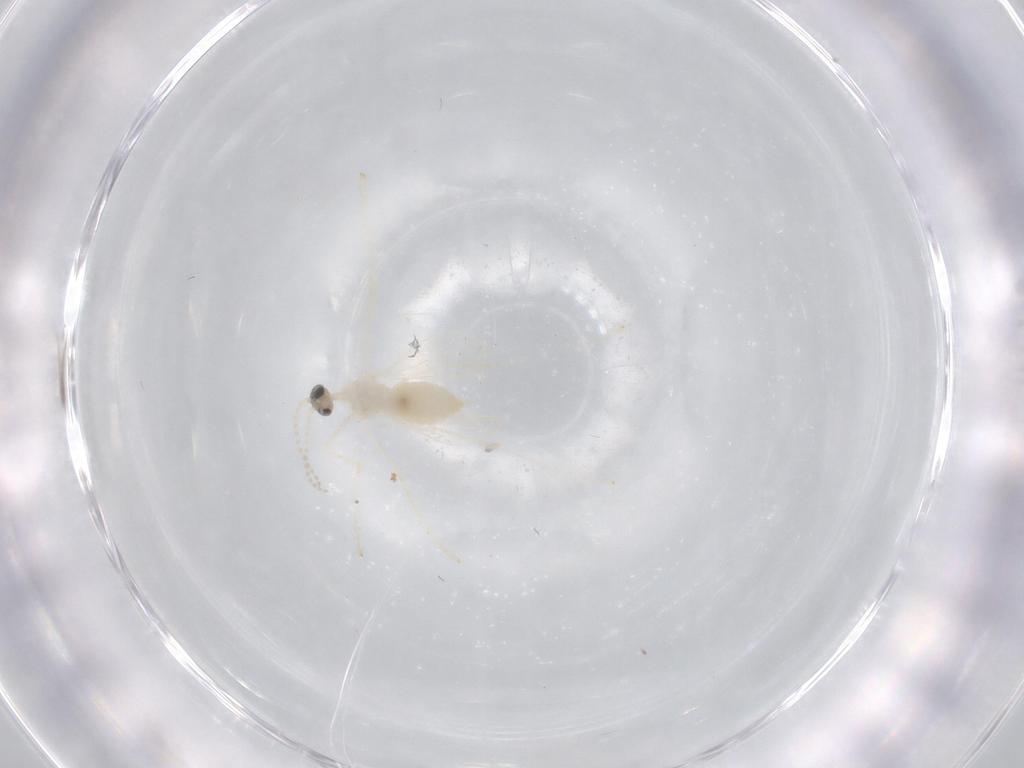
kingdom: Animalia
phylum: Arthropoda
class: Insecta
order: Diptera
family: Cecidomyiidae
